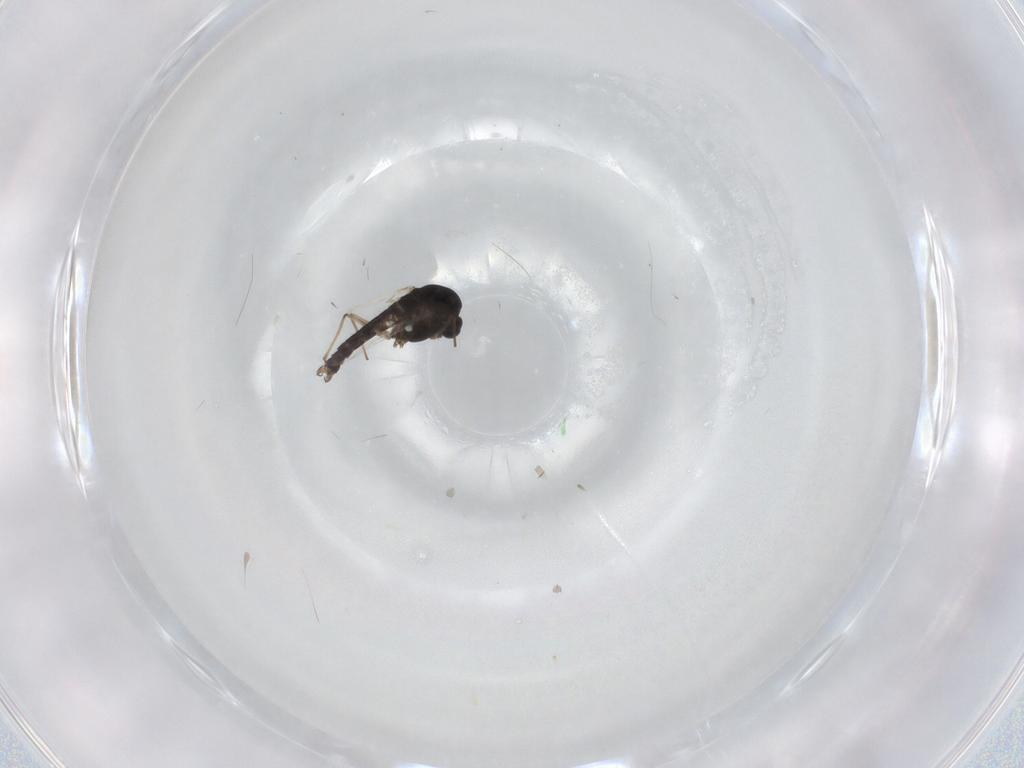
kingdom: Animalia
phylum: Arthropoda
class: Insecta
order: Diptera
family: Chironomidae
